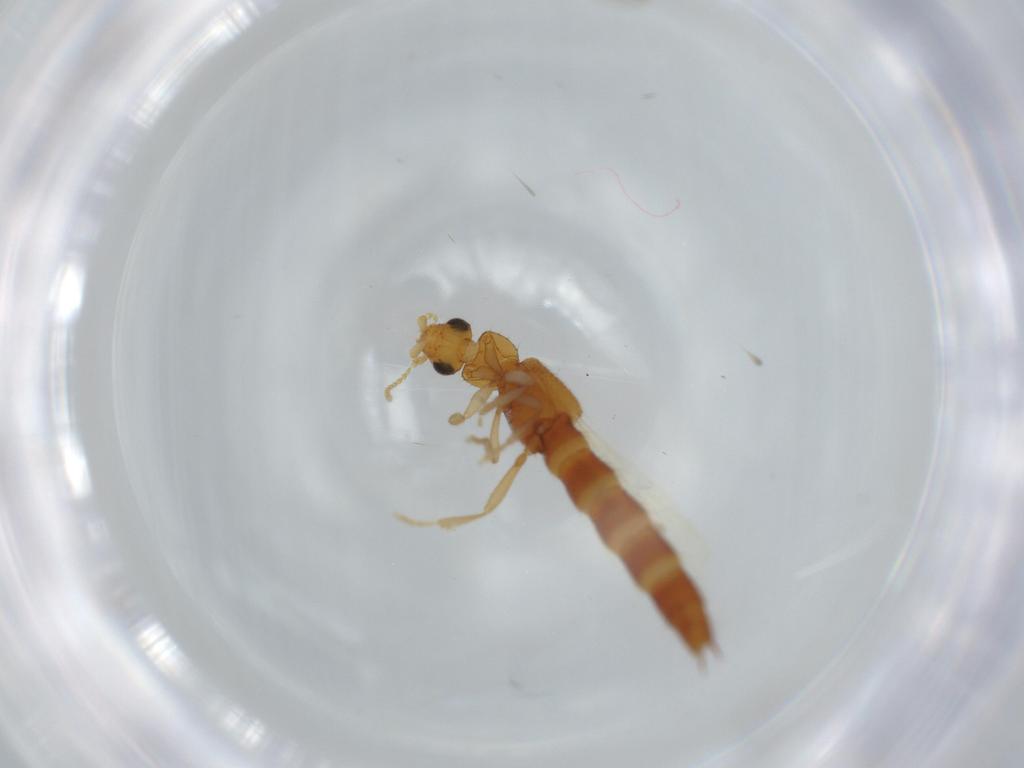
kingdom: Animalia
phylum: Arthropoda
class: Insecta
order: Coleoptera
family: Staphylinidae
